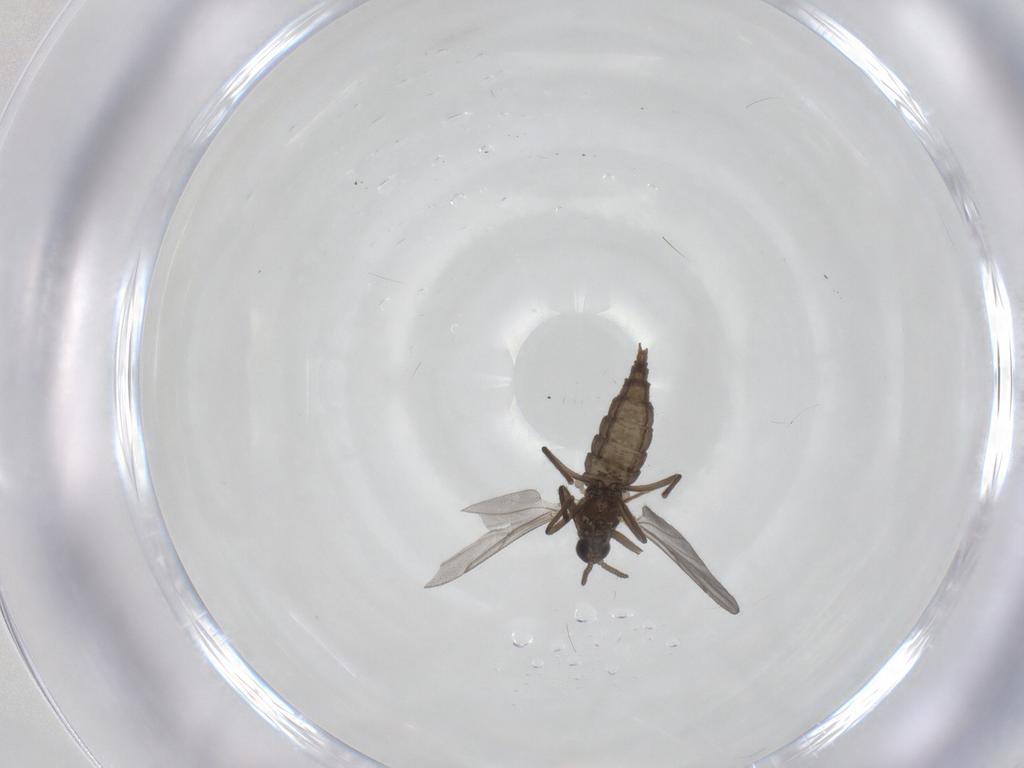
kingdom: Animalia
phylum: Arthropoda
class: Insecta
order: Diptera
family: Cecidomyiidae
